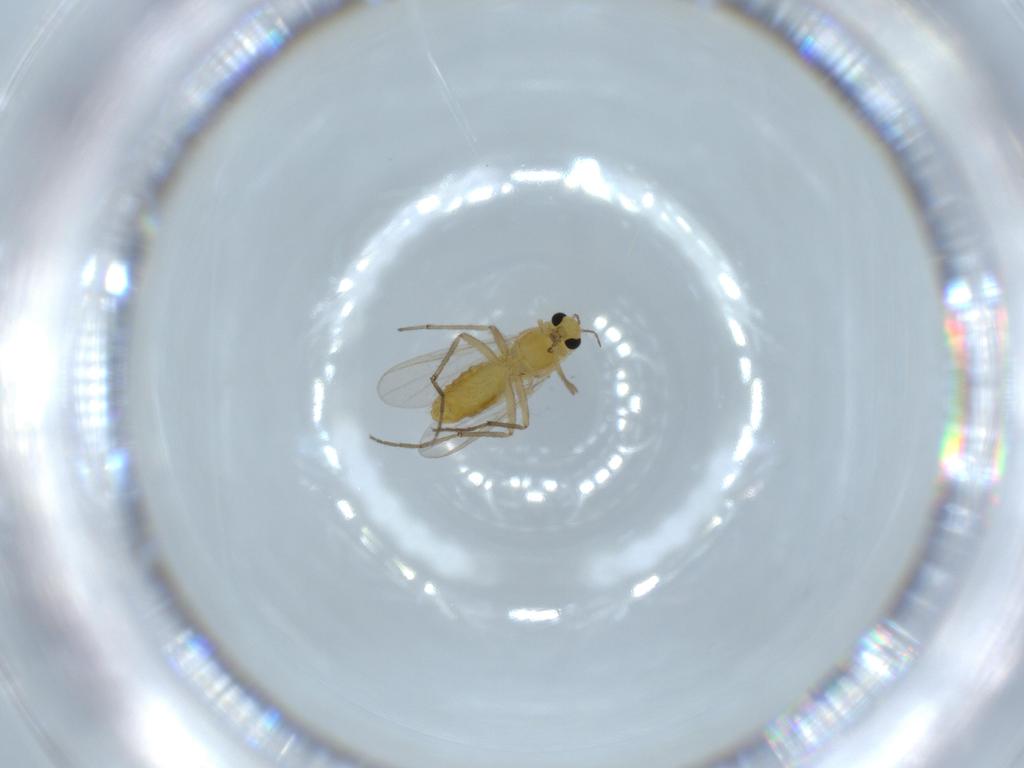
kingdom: Animalia
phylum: Arthropoda
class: Insecta
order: Diptera
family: Chironomidae
